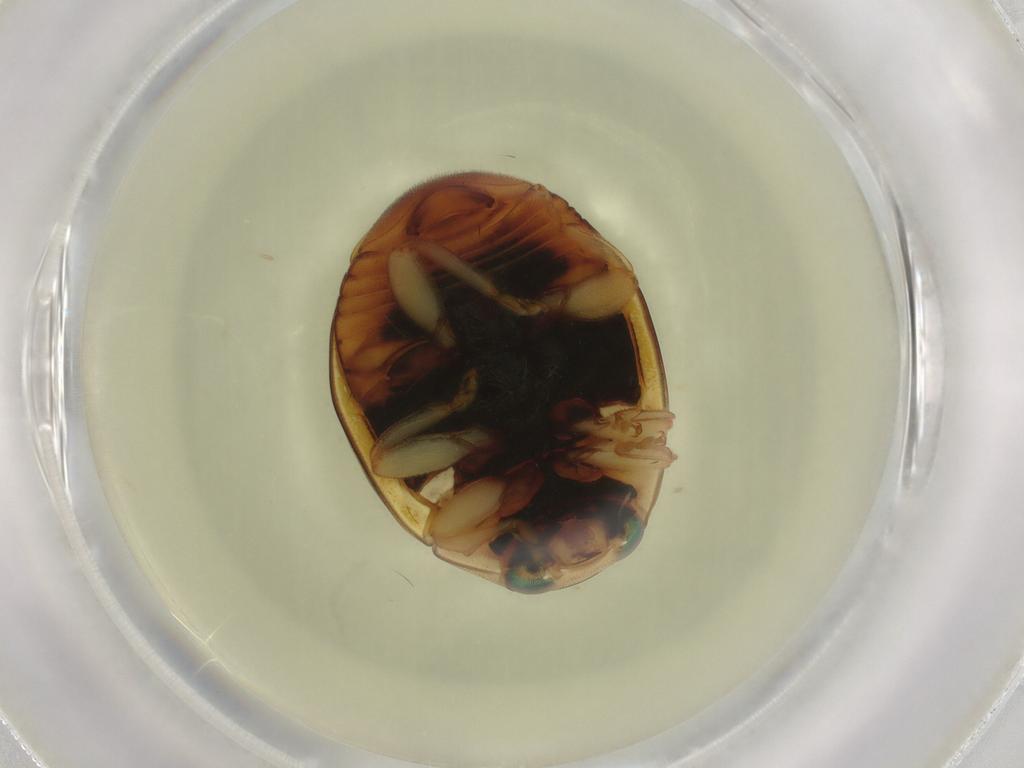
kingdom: Animalia
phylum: Arthropoda
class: Insecta
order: Coleoptera
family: Coccinellidae
